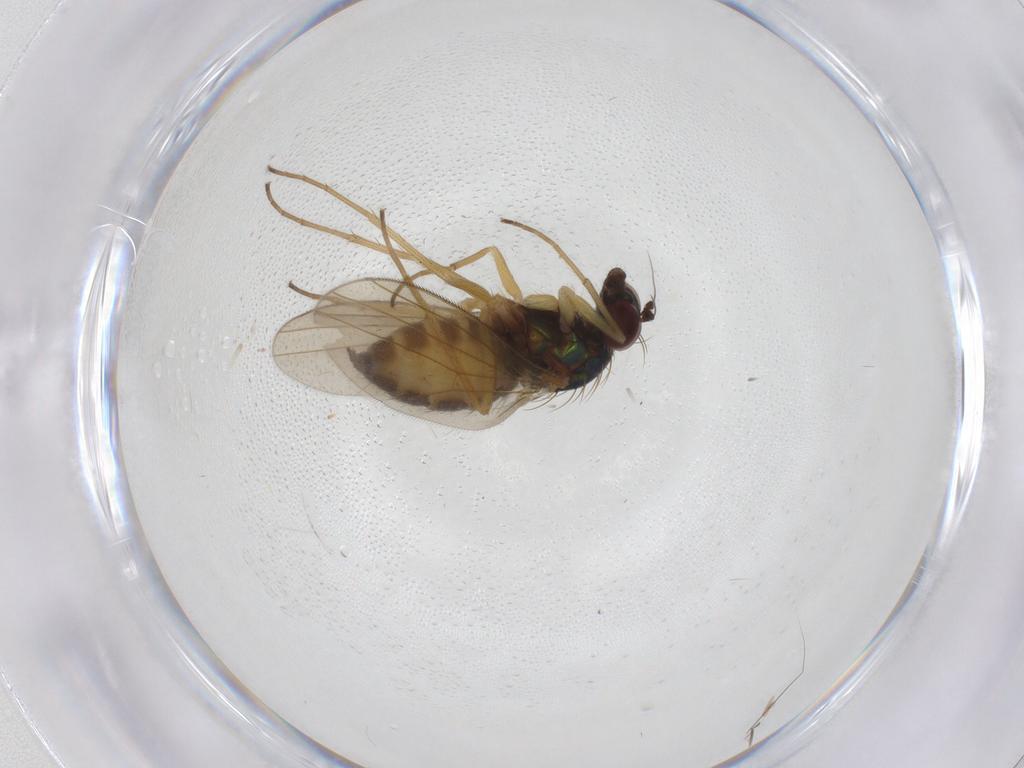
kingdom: Animalia
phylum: Arthropoda
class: Insecta
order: Diptera
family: Dolichopodidae
